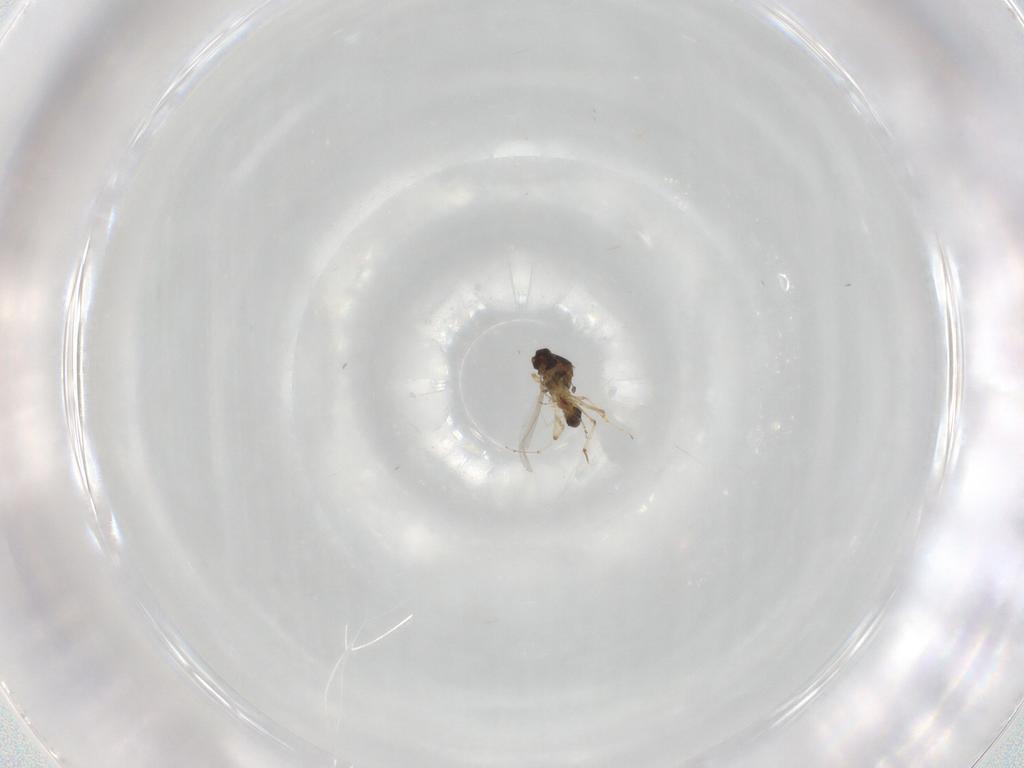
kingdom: Animalia
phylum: Arthropoda
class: Insecta
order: Diptera
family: Ceratopogonidae
